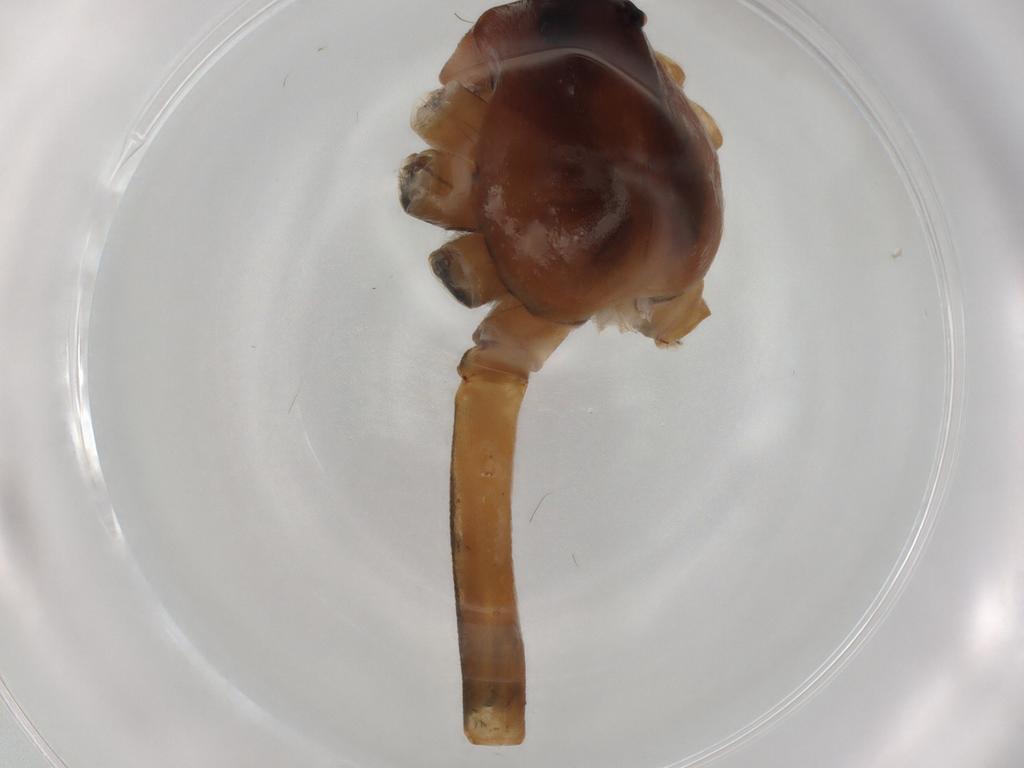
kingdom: Animalia
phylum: Arthropoda
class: Arachnida
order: Araneae
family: Pisauridae
